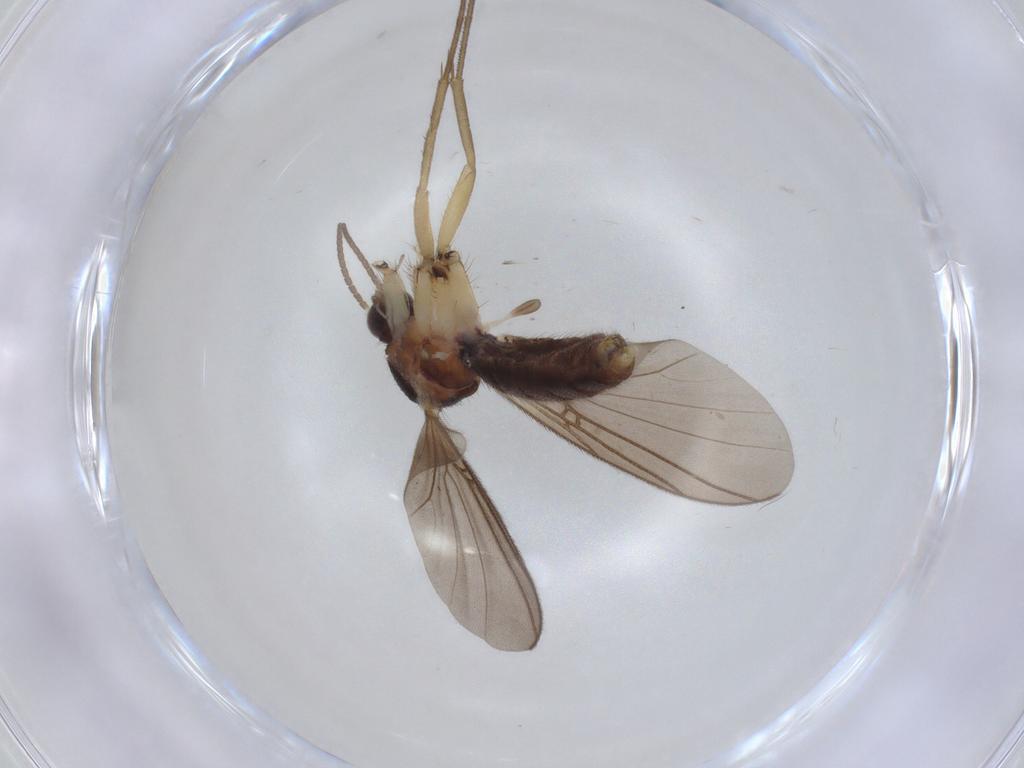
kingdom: Animalia
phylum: Arthropoda
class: Insecta
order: Diptera
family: Mycetophilidae
